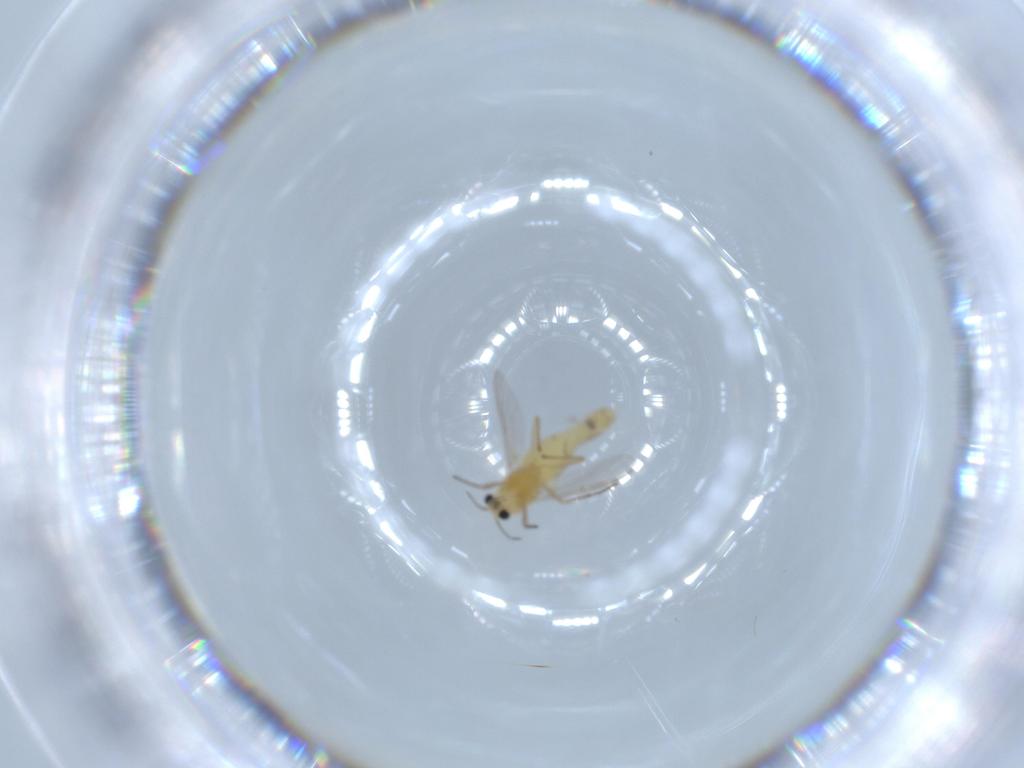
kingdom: Animalia
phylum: Arthropoda
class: Insecta
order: Diptera
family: Chironomidae
